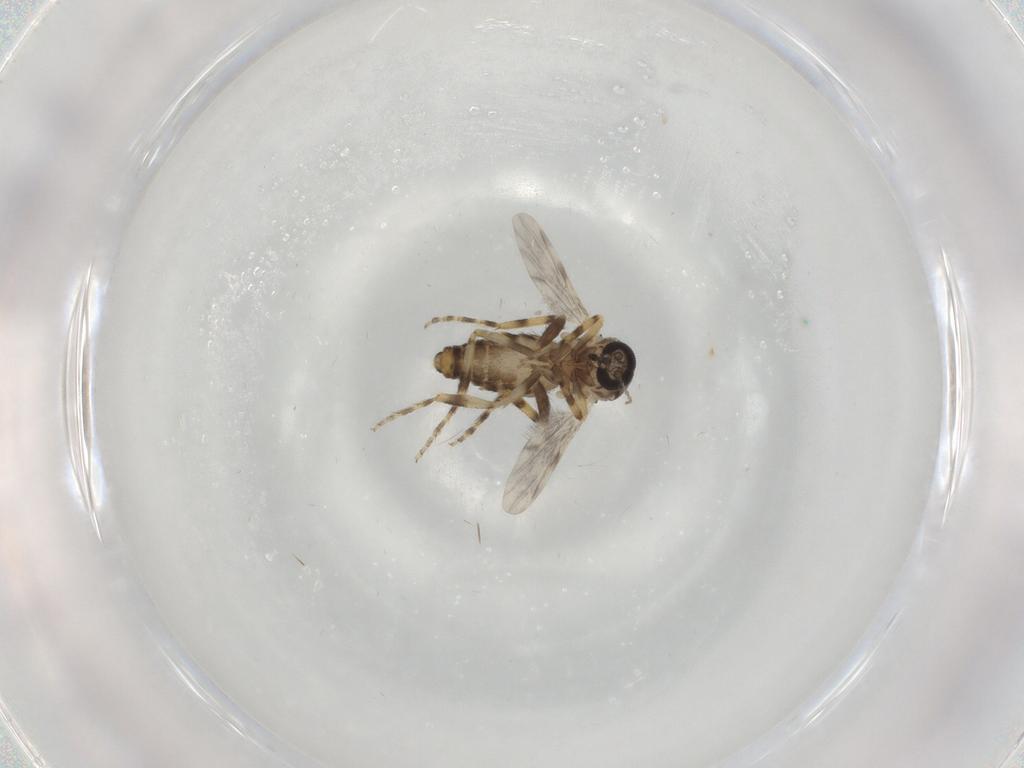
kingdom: Animalia
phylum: Arthropoda
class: Insecta
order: Diptera
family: Ceratopogonidae
